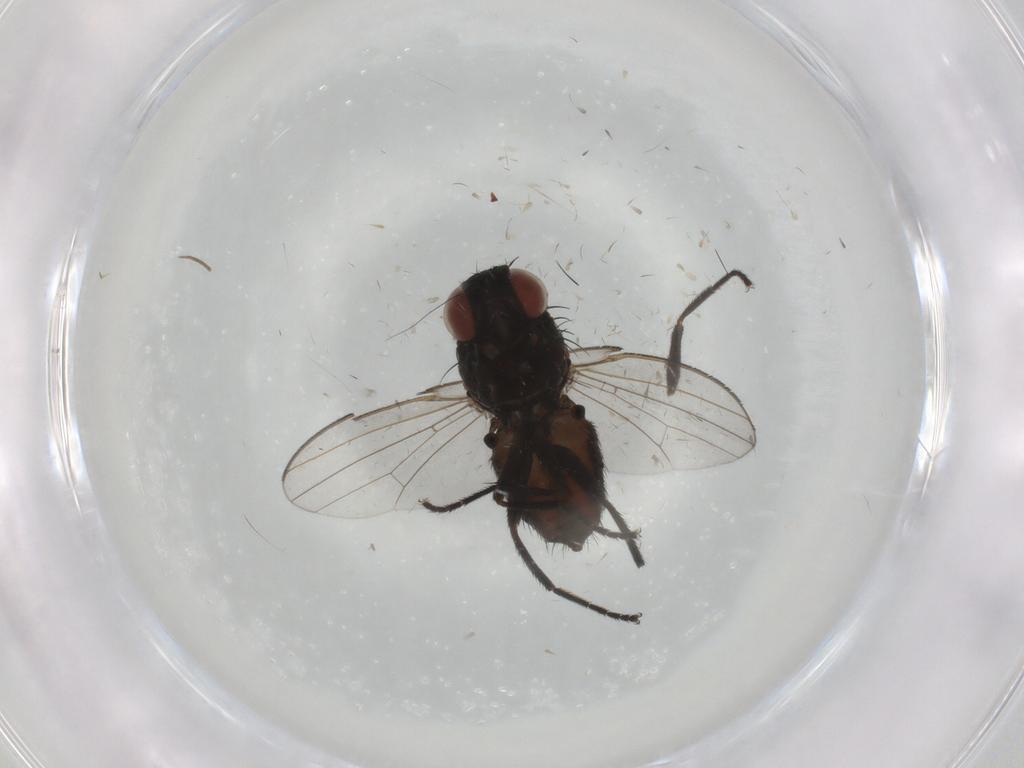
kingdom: Animalia
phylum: Arthropoda
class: Insecta
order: Diptera
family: Milichiidae
